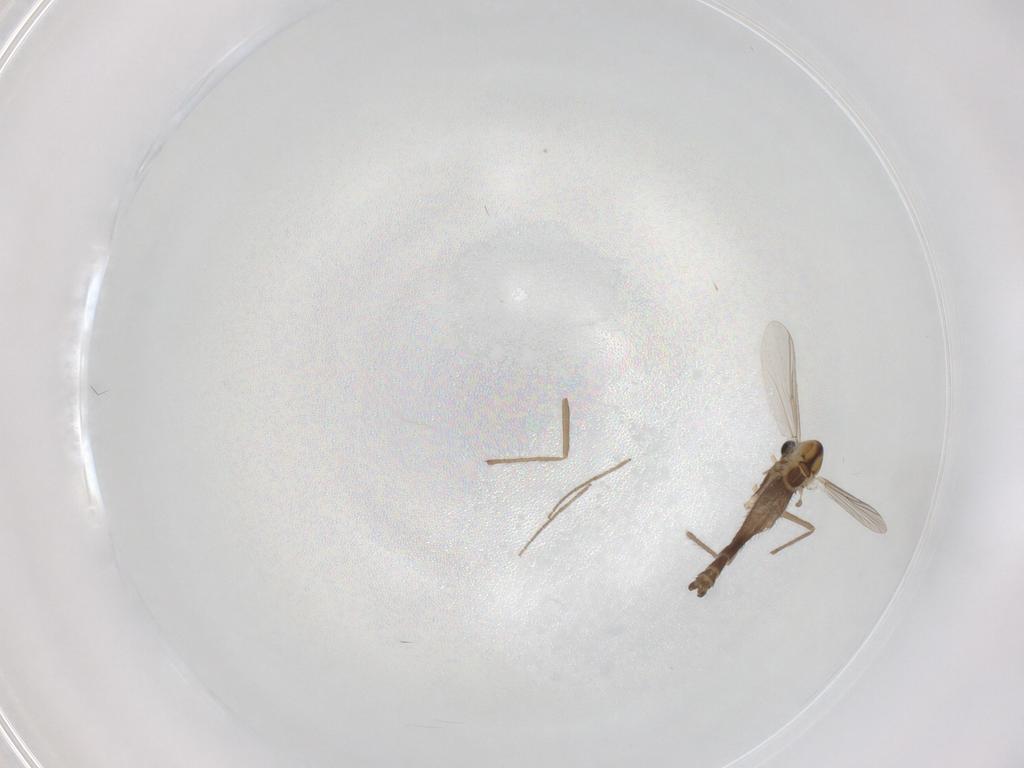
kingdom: Animalia
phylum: Arthropoda
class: Insecta
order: Diptera
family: Chironomidae
